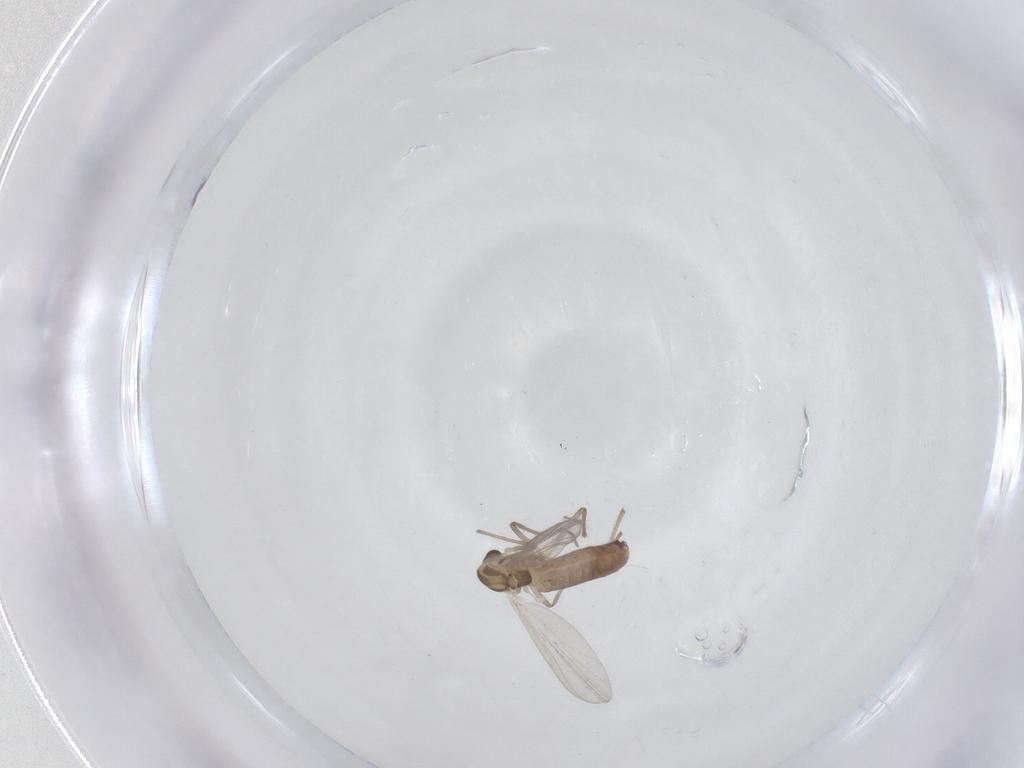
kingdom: Animalia
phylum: Arthropoda
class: Insecta
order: Diptera
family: Chironomidae
